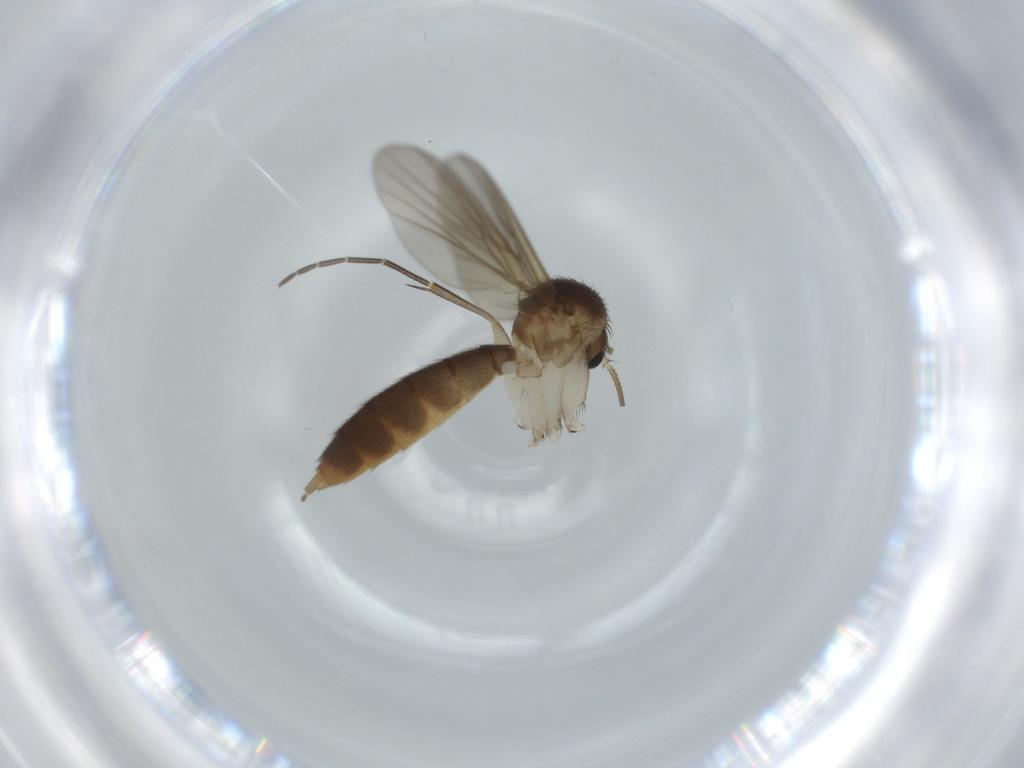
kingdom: Animalia
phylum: Arthropoda
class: Insecta
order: Diptera
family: Mycetophilidae
